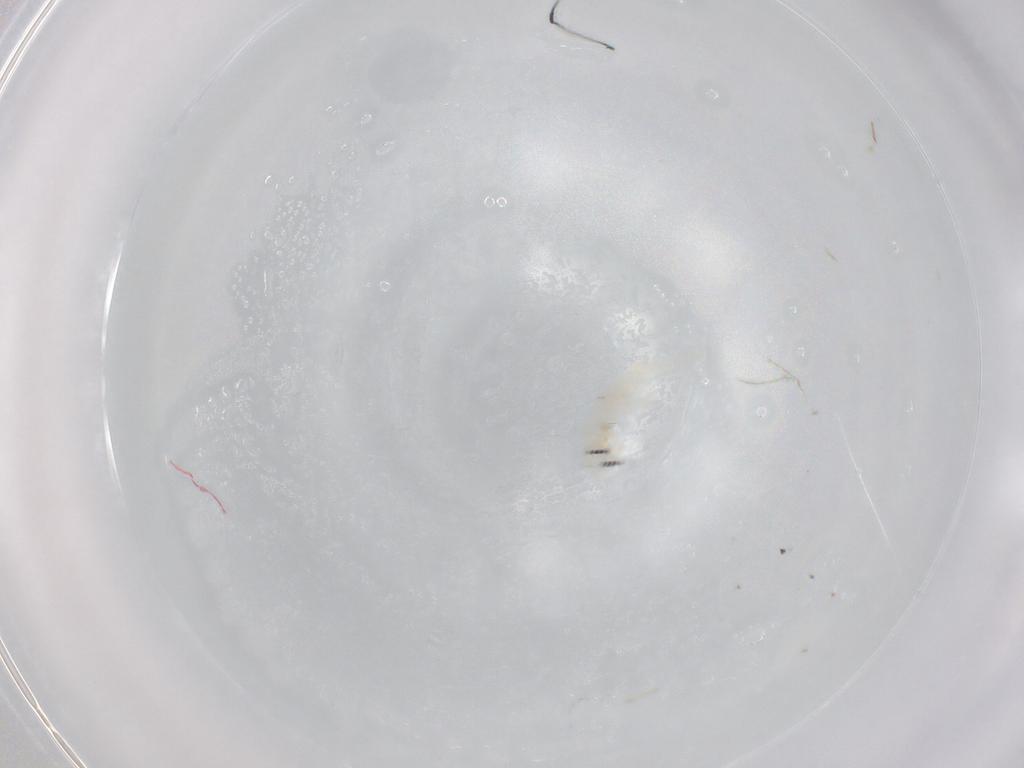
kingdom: Animalia
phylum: Arthropoda
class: Collembola
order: Entomobryomorpha
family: Entomobryidae
